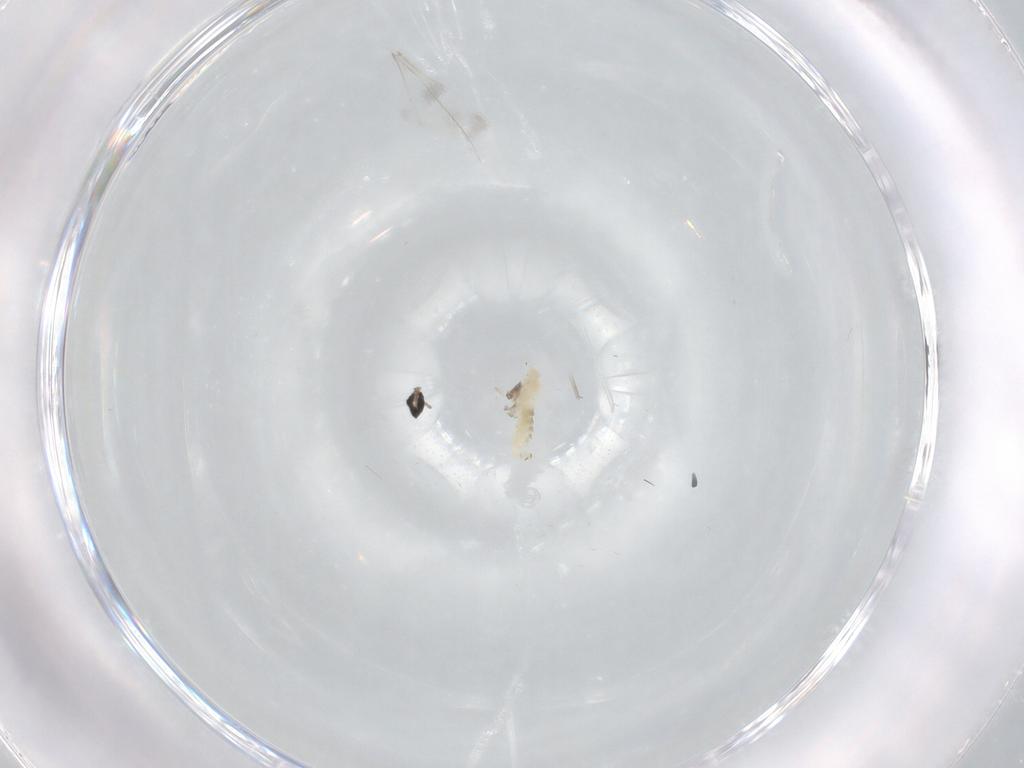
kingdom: Animalia
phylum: Arthropoda
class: Insecta
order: Diptera
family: Cecidomyiidae
